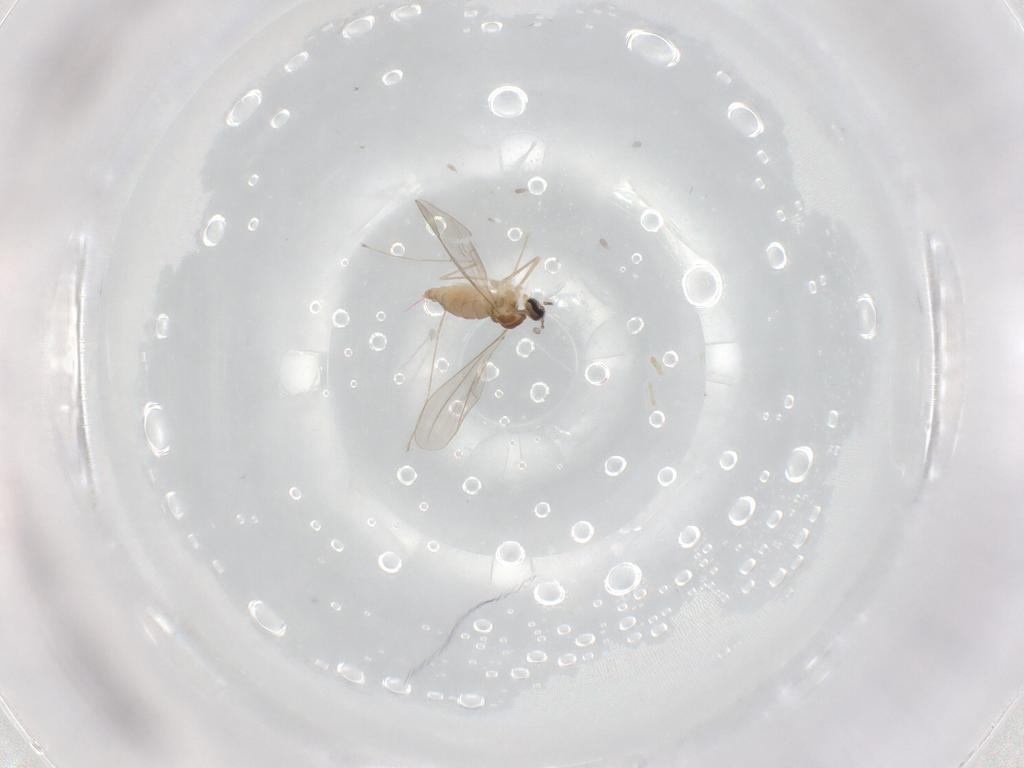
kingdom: Animalia
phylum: Arthropoda
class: Insecta
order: Diptera
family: Cecidomyiidae
